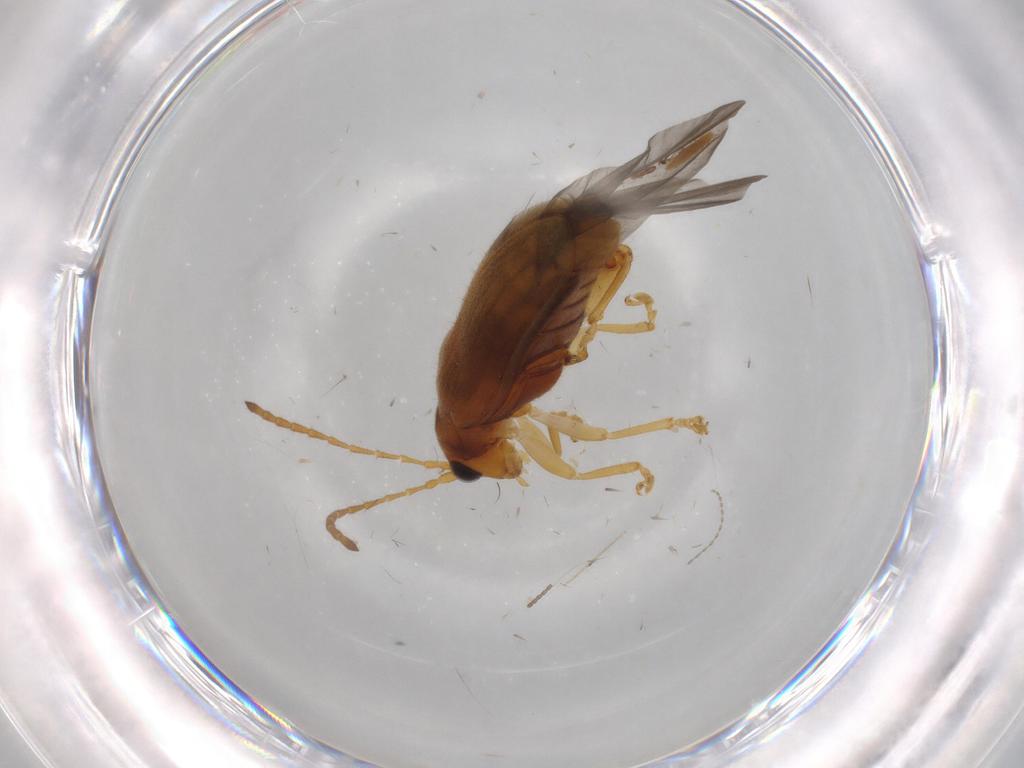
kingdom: Animalia
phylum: Arthropoda
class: Insecta
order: Coleoptera
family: Chrysomelidae
